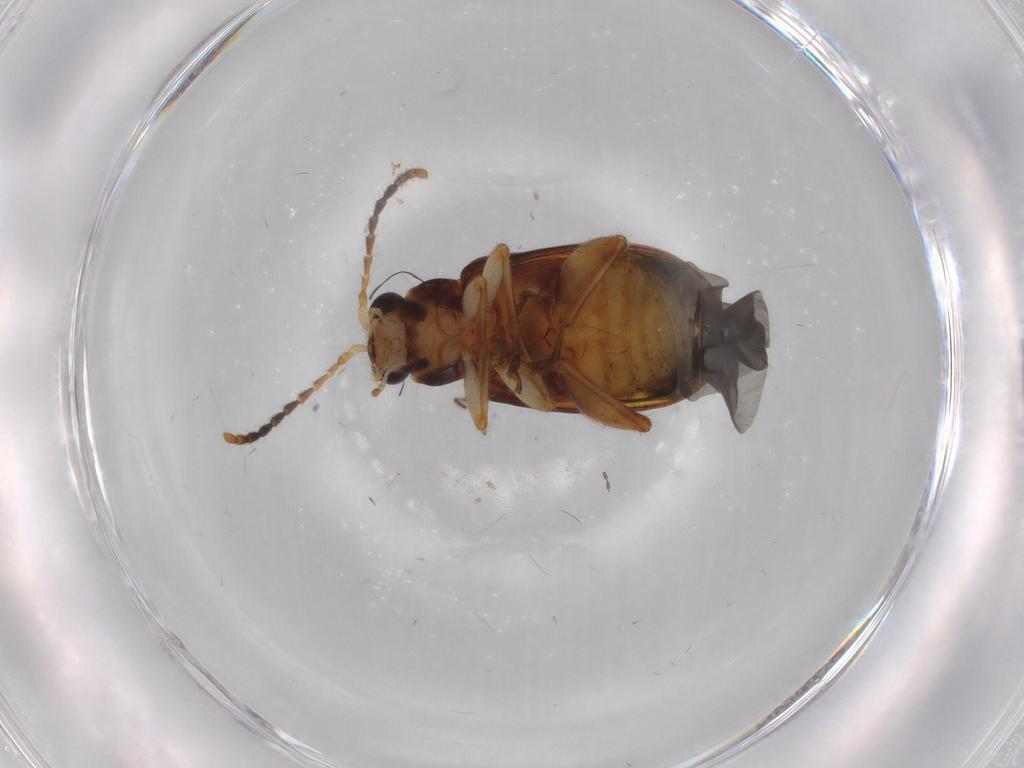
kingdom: Animalia
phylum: Arthropoda
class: Insecta
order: Coleoptera
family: Chrysomelidae
